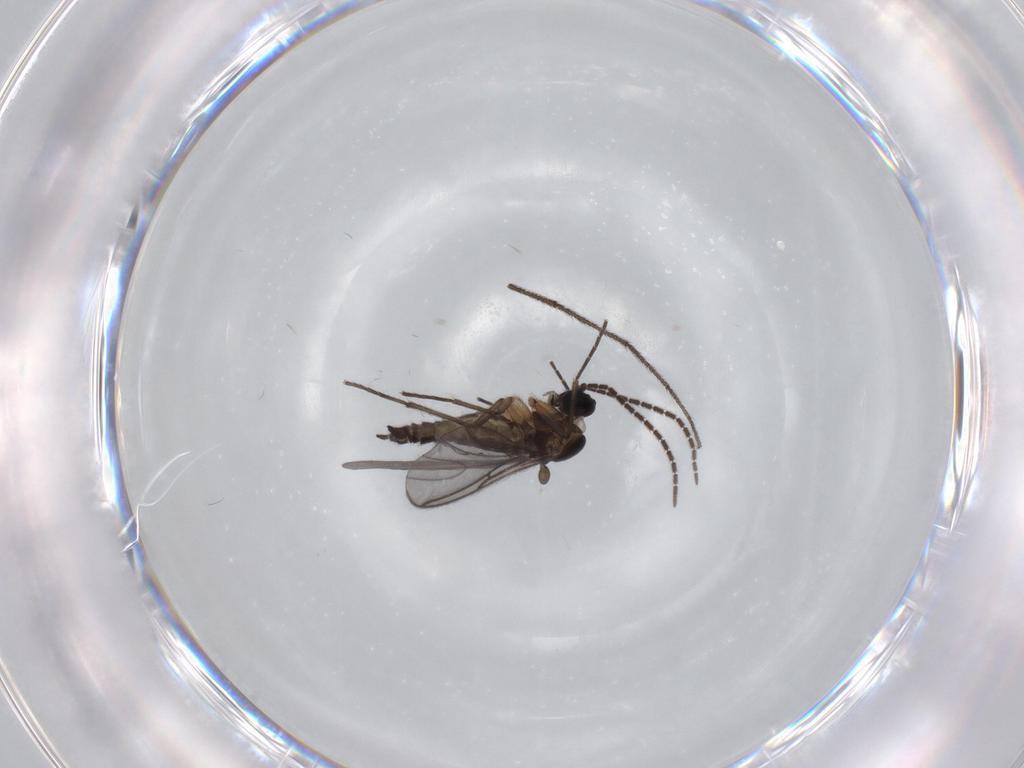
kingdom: Animalia
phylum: Arthropoda
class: Insecta
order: Diptera
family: Sciaridae
